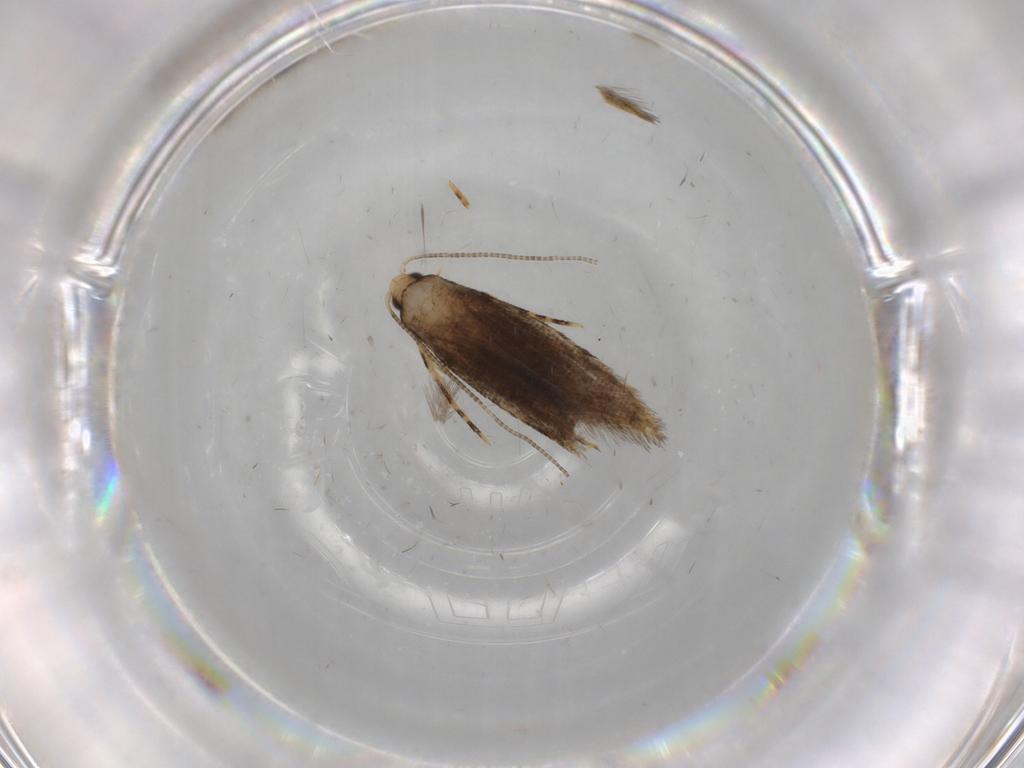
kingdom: Animalia
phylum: Arthropoda
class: Insecta
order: Lepidoptera
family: Tineidae
